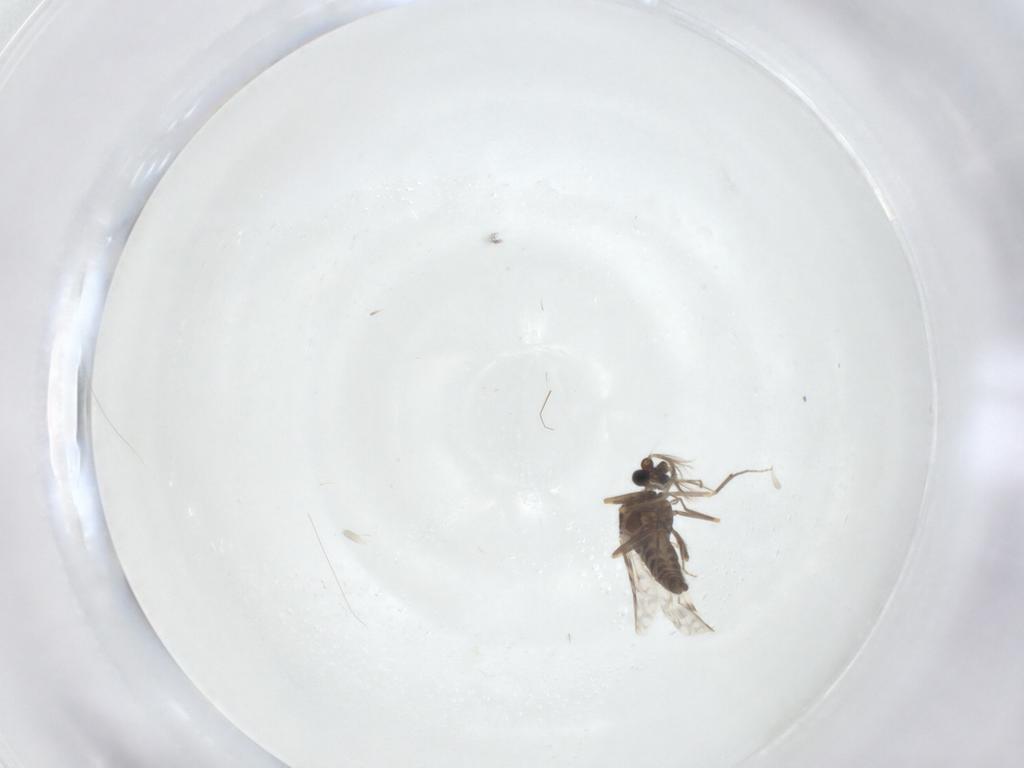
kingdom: Animalia
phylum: Arthropoda
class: Insecta
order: Diptera
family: Ceratopogonidae
